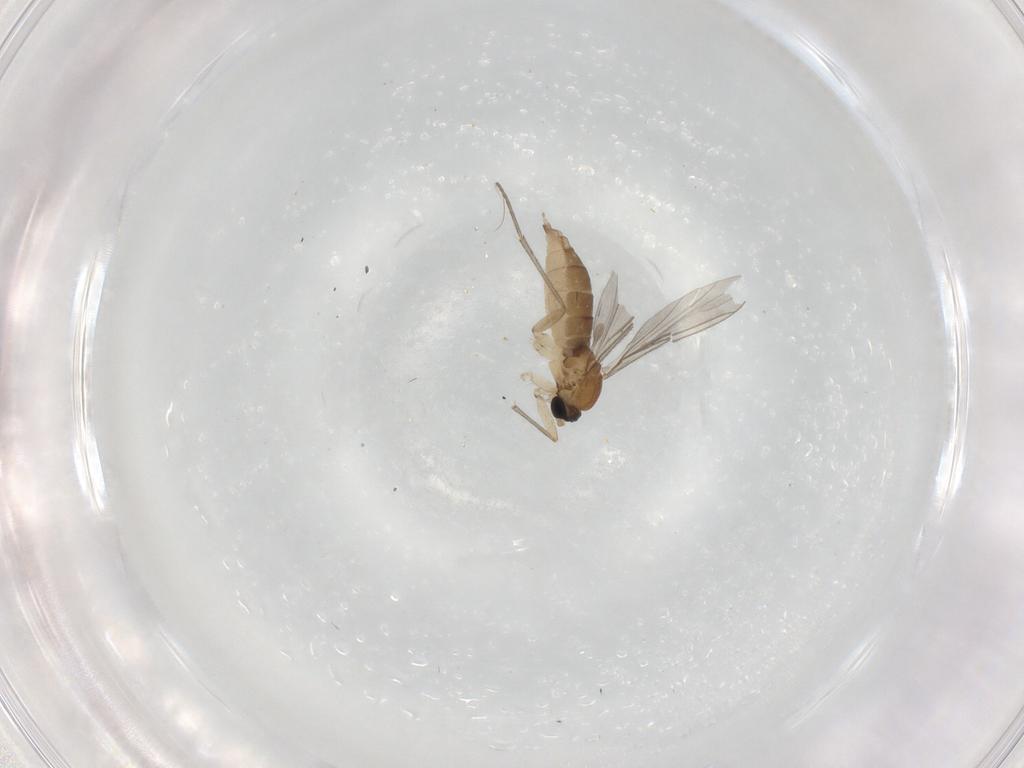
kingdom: Animalia
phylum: Arthropoda
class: Insecta
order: Diptera
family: Sciaridae
